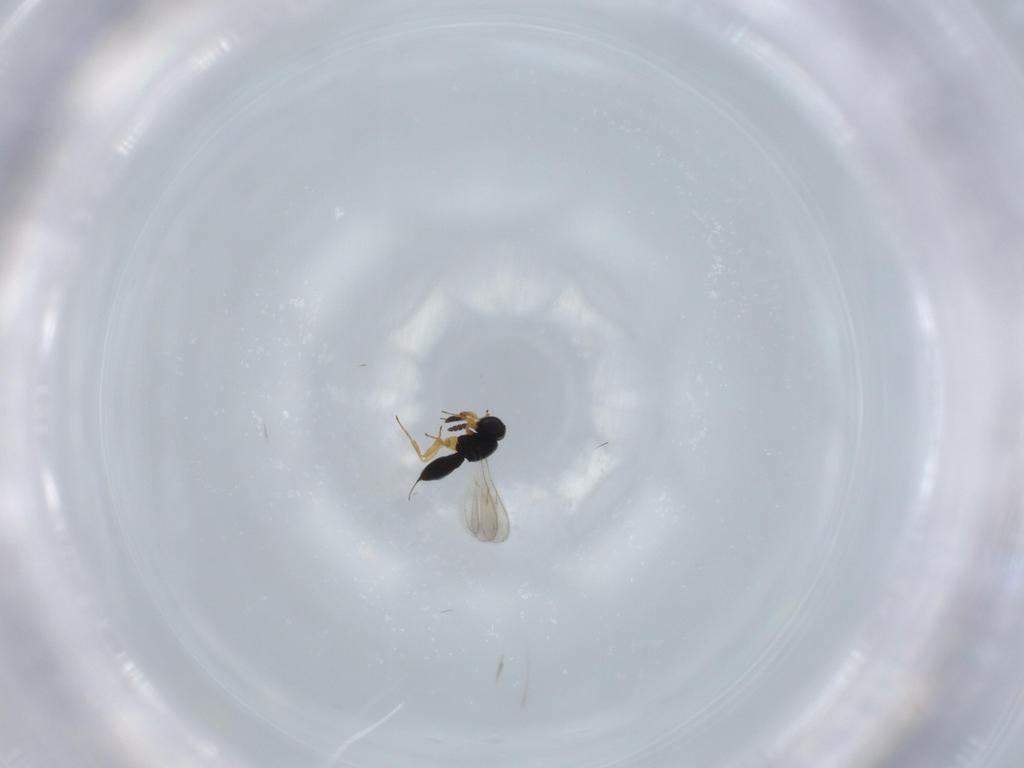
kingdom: Animalia
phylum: Arthropoda
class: Insecta
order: Hymenoptera
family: Scelionidae
